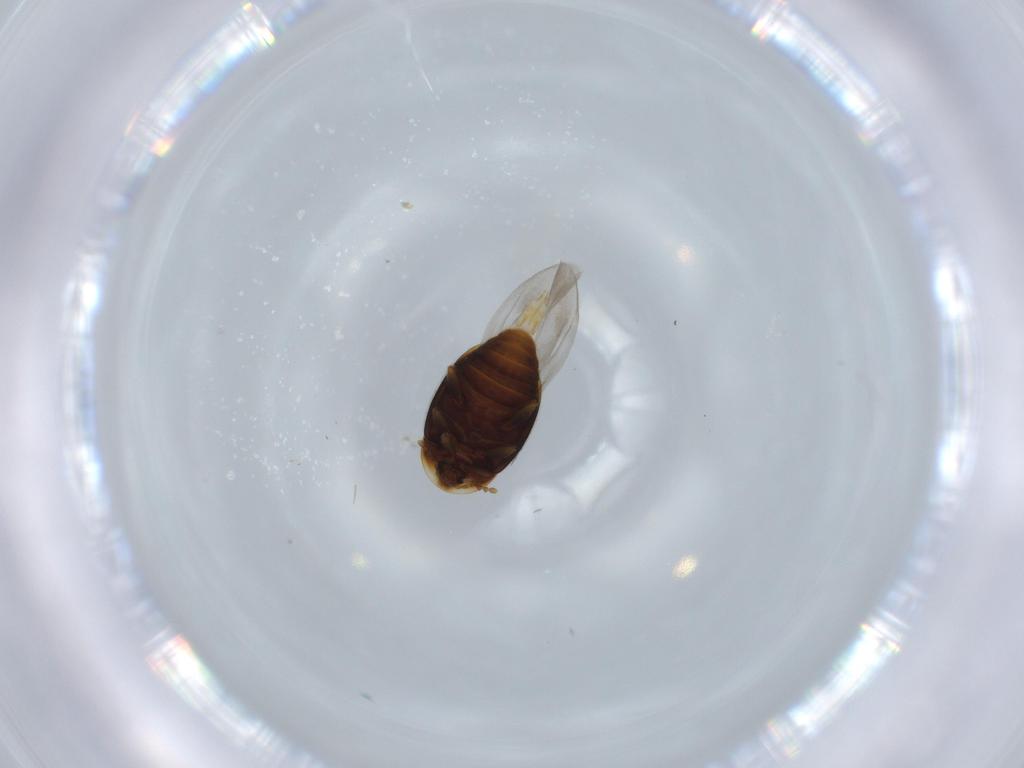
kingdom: Animalia
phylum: Arthropoda
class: Insecta
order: Coleoptera
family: Corylophidae
